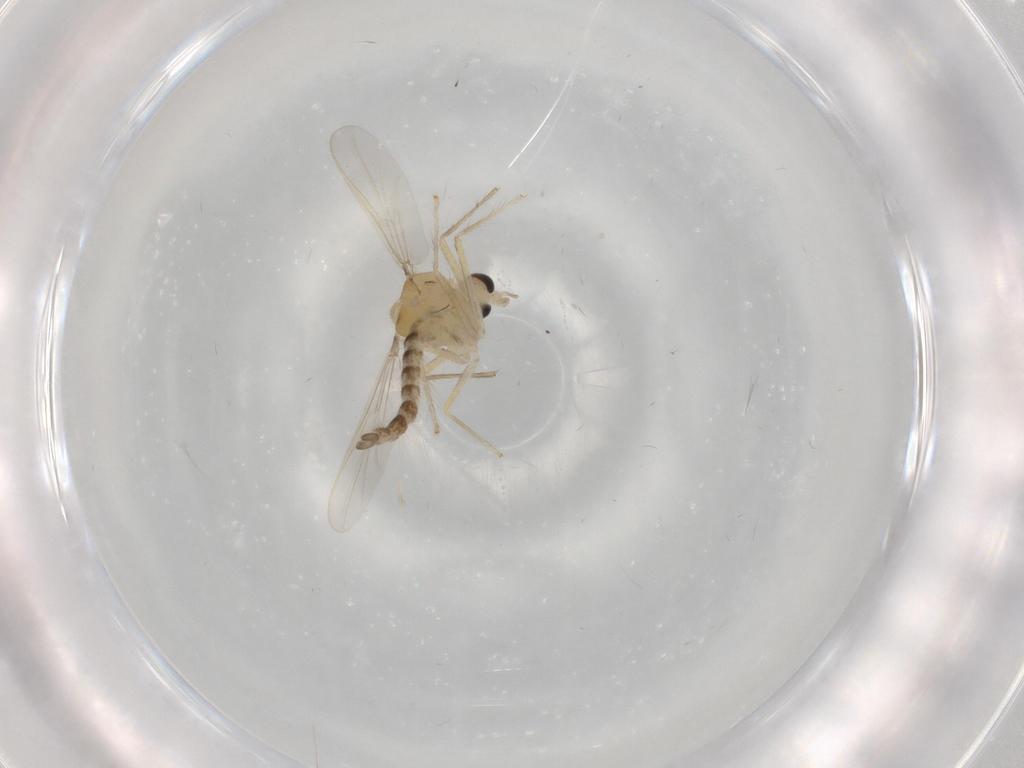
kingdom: Animalia
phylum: Arthropoda
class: Insecta
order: Diptera
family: Chironomidae
